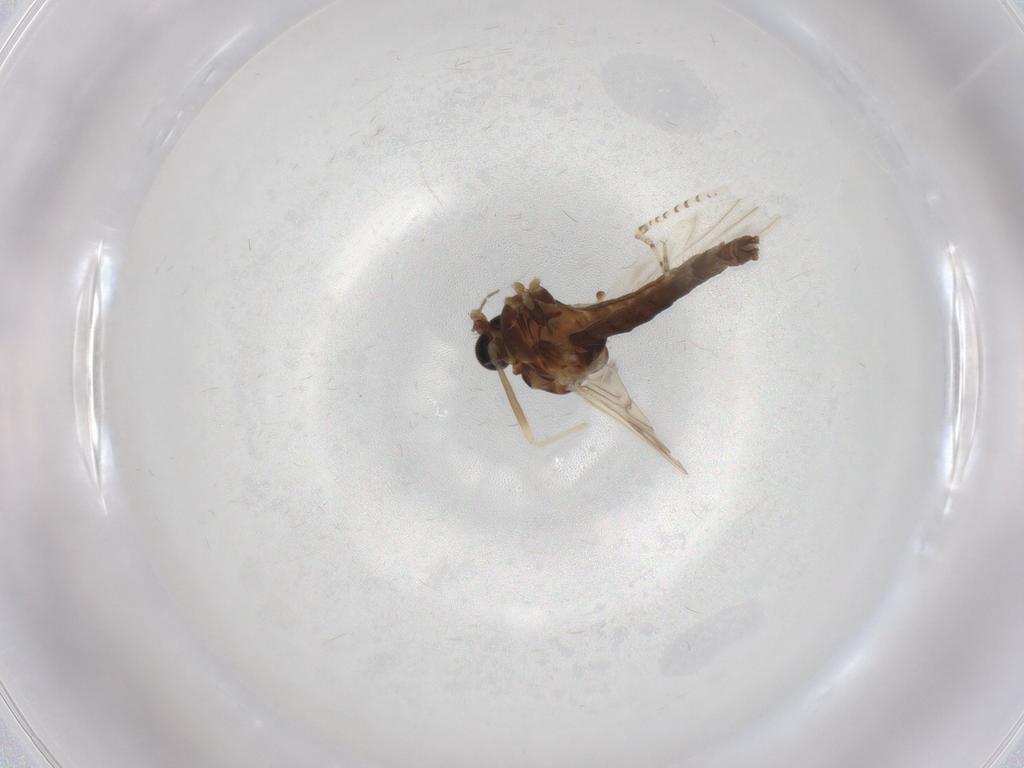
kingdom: Animalia
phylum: Arthropoda
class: Insecta
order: Diptera
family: Chironomidae
